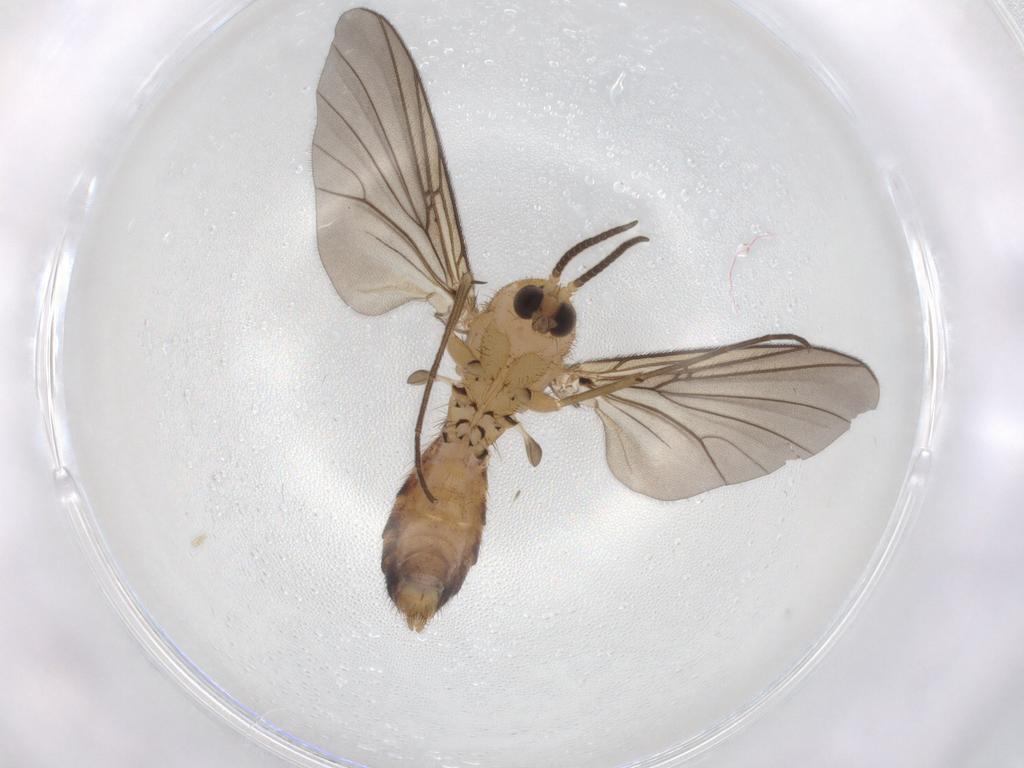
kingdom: Animalia
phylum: Arthropoda
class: Insecta
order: Diptera
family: Mycetophilidae
